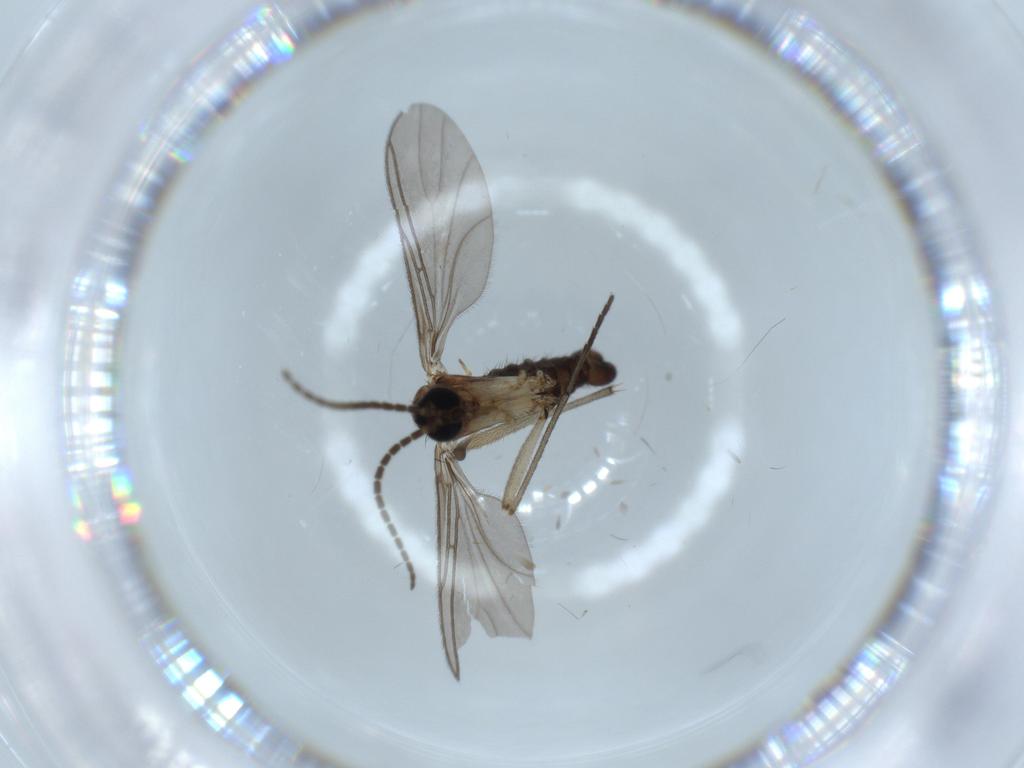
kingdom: Animalia
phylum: Arthropoda
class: Insecta
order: Diptera
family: Sciaridae
